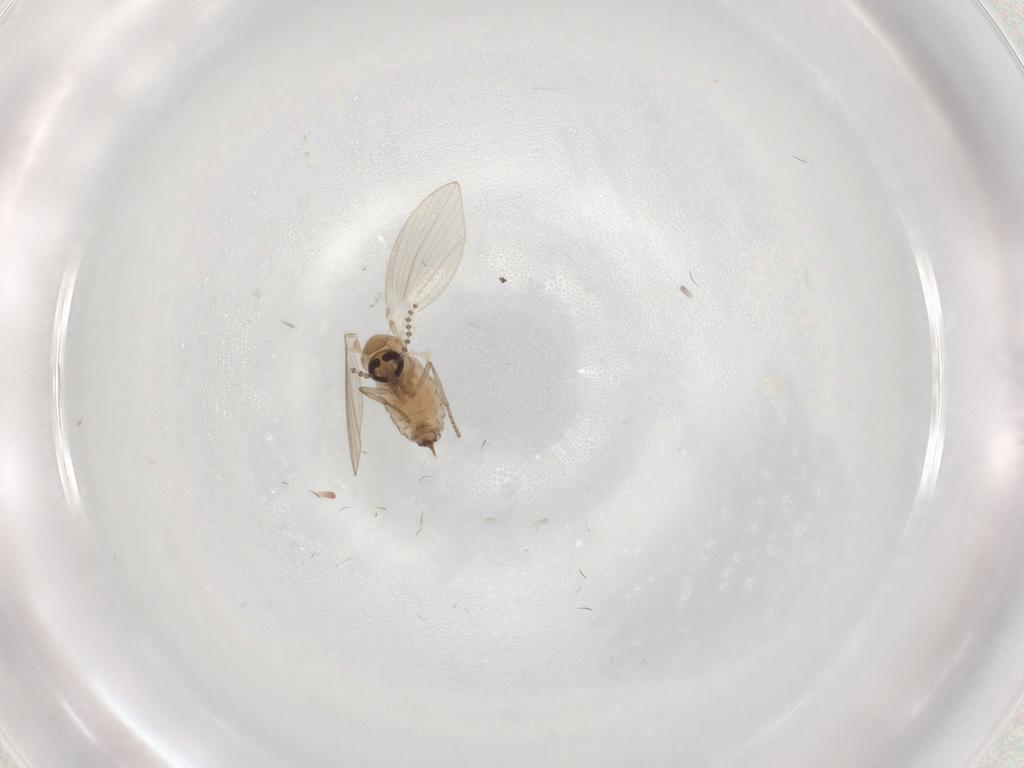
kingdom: Animalia
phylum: Arthropoda
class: Insecta
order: Diptera
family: Psychodidae
